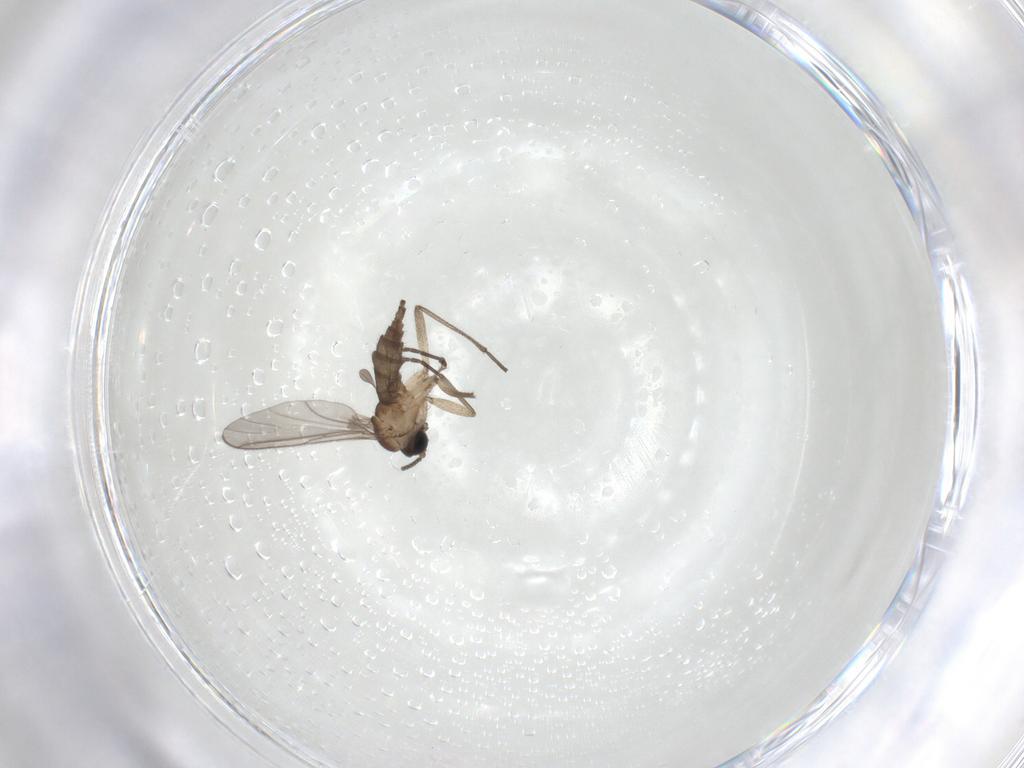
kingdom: Animalia
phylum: Arthropoda
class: Insecta
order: Diptera
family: Sciaridae
